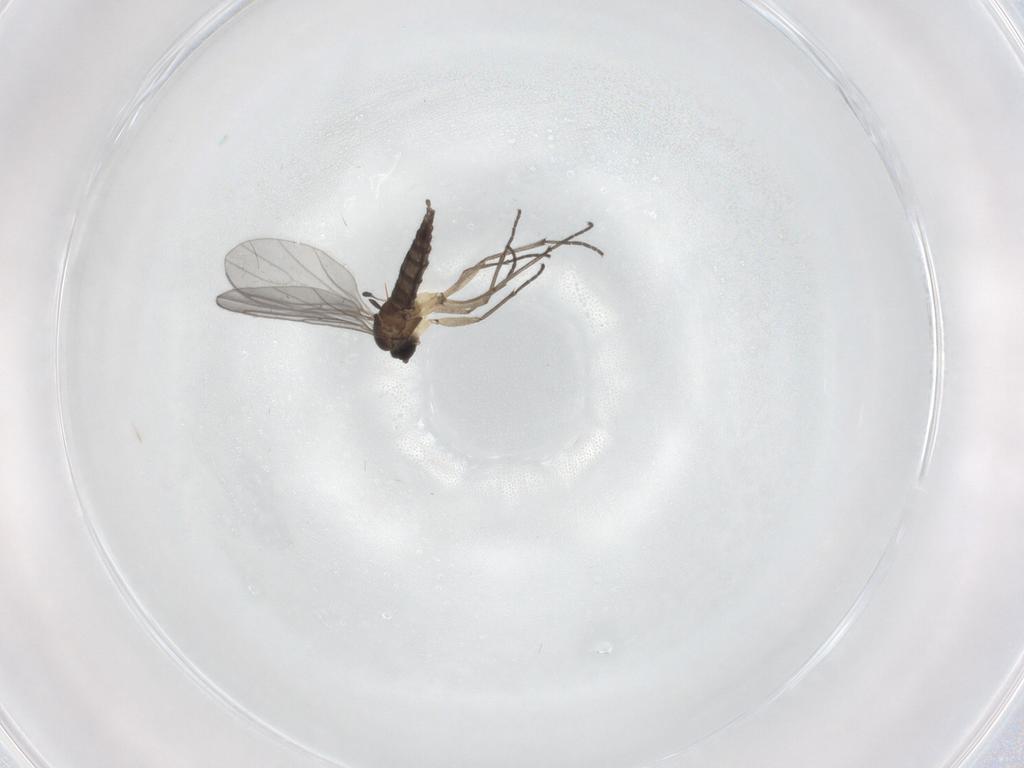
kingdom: Animalia
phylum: Arthropoda
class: Insecta
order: Diptera
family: Sciaridae
